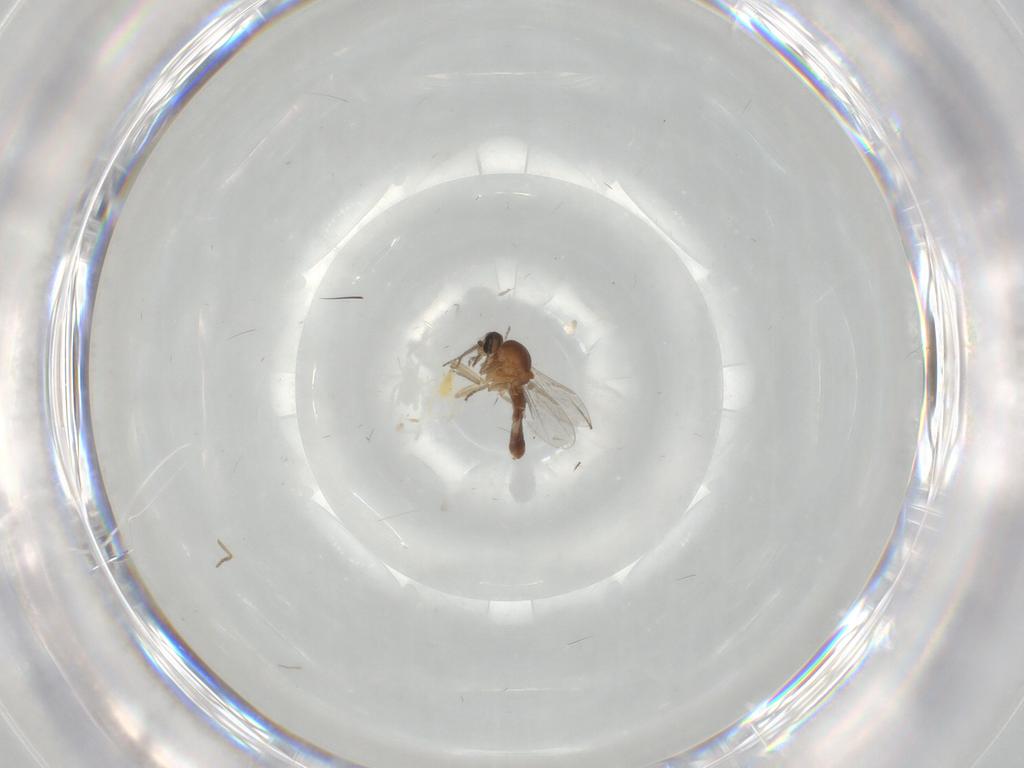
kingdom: Animalia
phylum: Arthropoda
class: Insecta
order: Diptera
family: Ceratopogonidae
